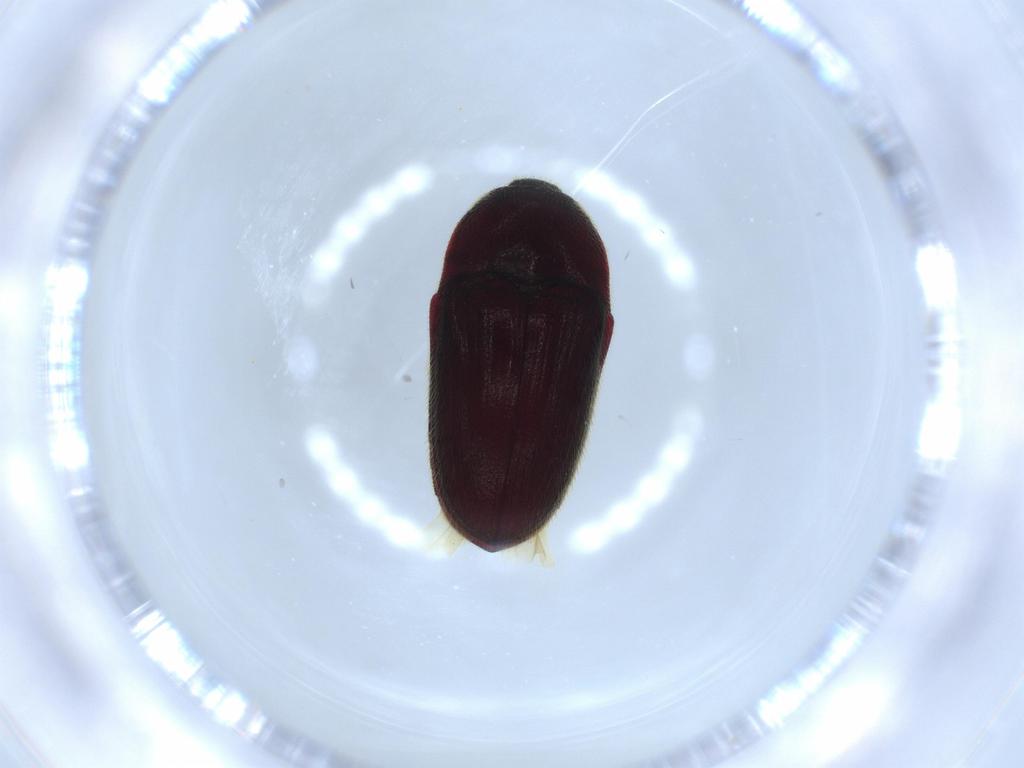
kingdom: Animalia
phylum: Arthropoda
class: Insecta
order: Coleoptera
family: Throscidae
